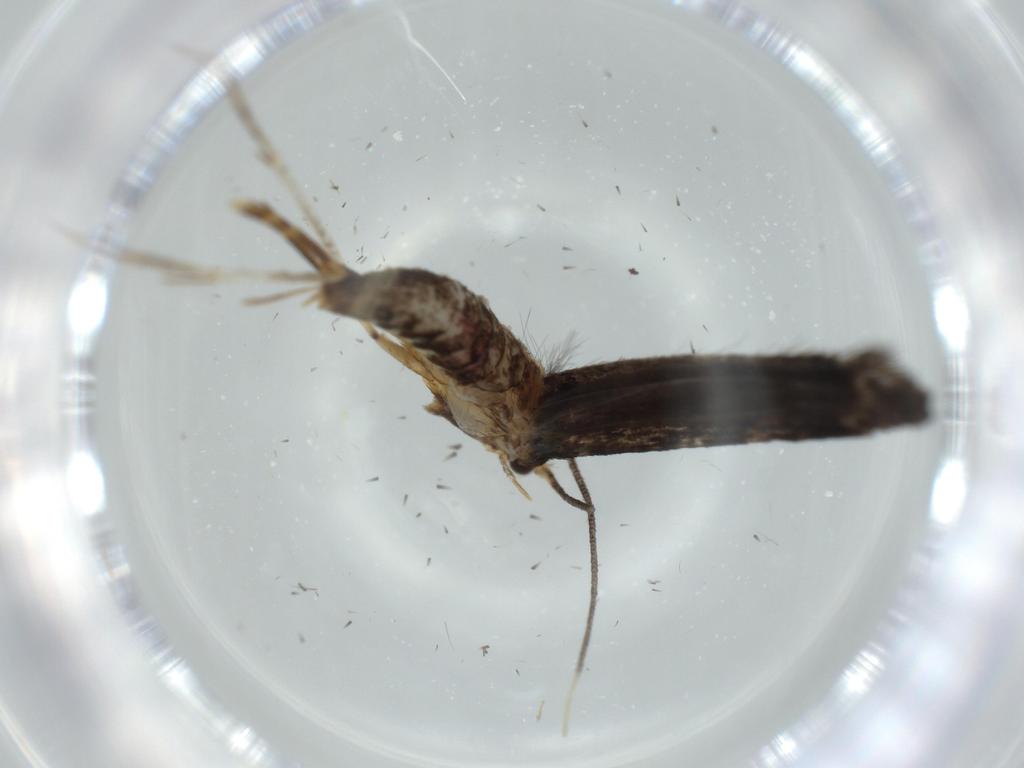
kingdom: Animalia
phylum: Arthropoda
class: Insecta
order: Lepidoptera
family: Tineidae
